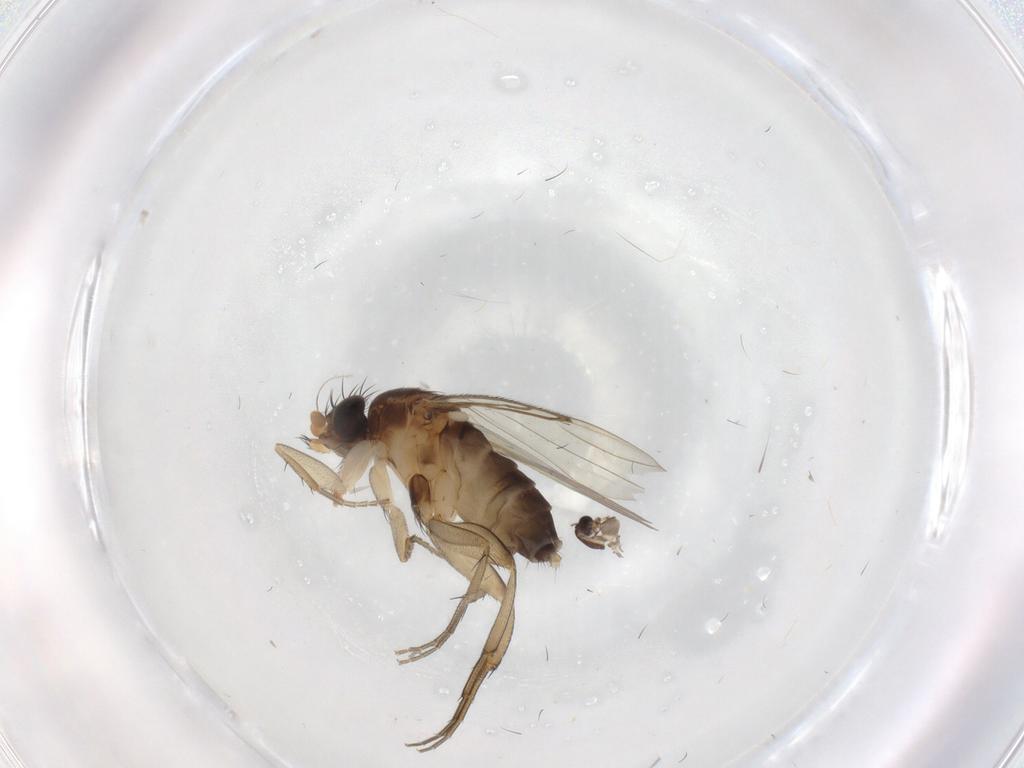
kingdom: Animalia
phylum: Arthropoda
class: Insecta
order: Diptera
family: Phoridae
